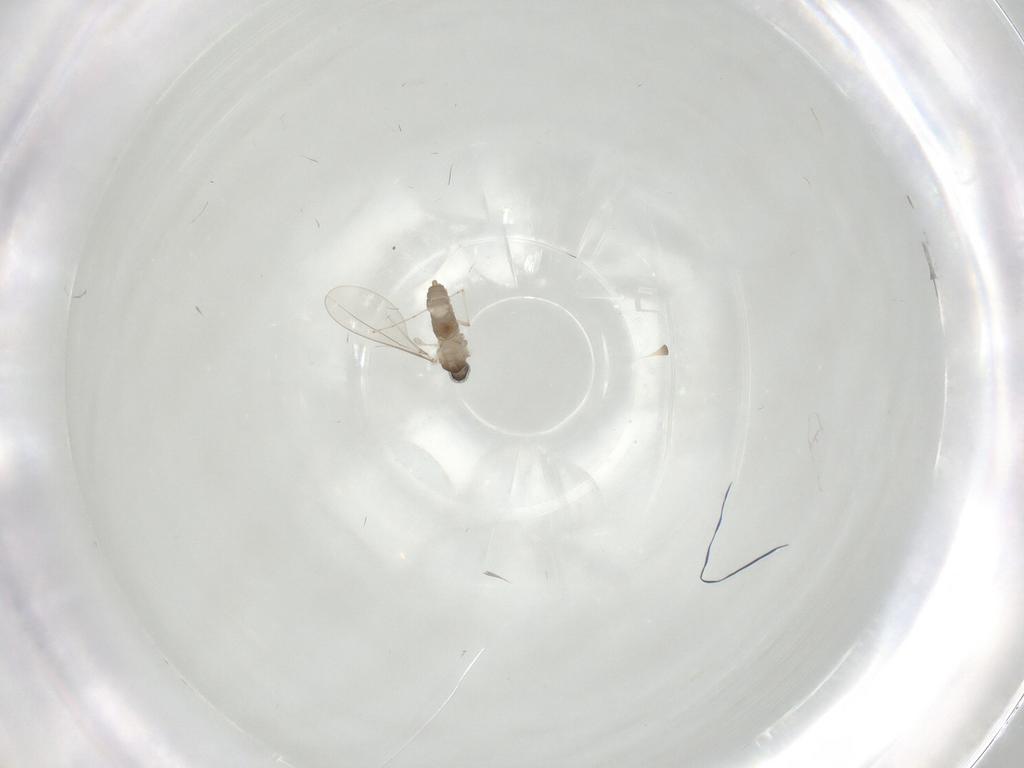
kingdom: Animalia
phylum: Arthropoda
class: Insecta
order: Diptera
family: Cecidomyiidae
